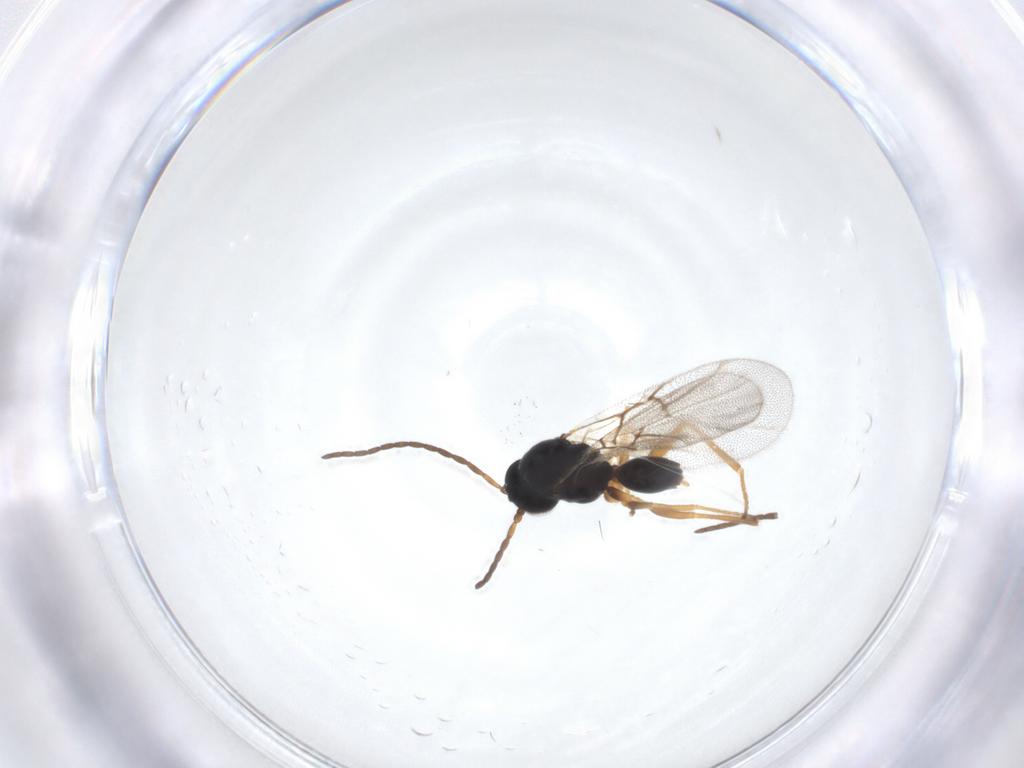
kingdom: Animalia
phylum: Arthropoda
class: Insecta
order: Hymenoptera
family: Cynipidae
